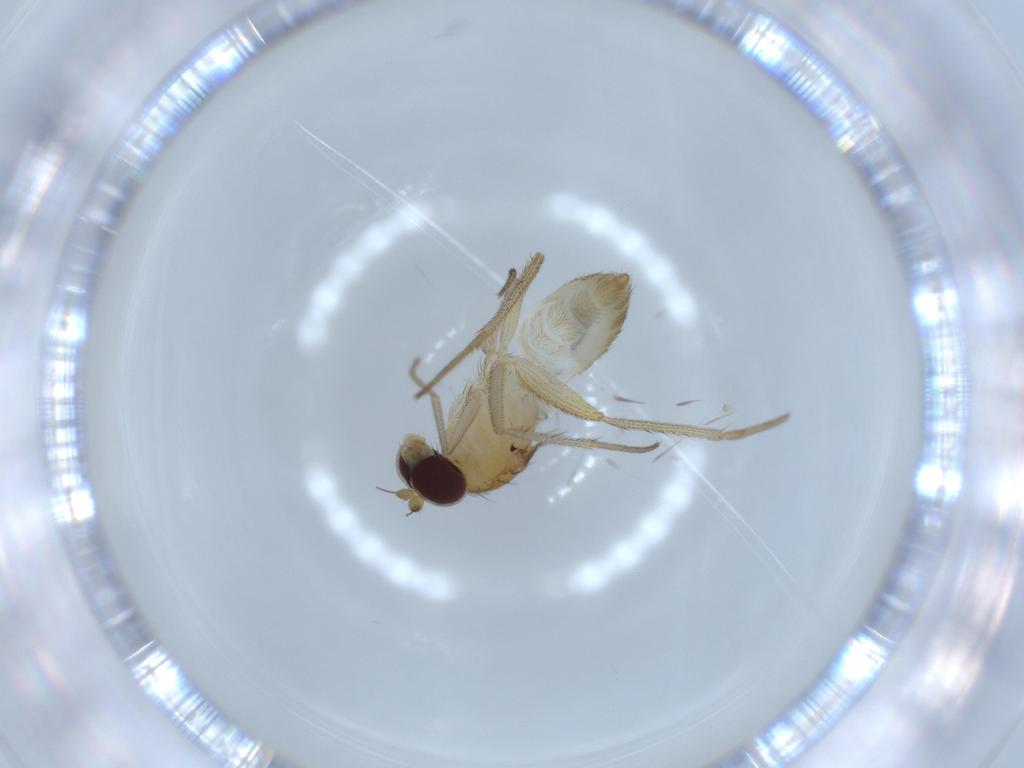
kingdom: Animalia
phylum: Arthropoda
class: Insecta
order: Diptera
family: Dolichopodidae
